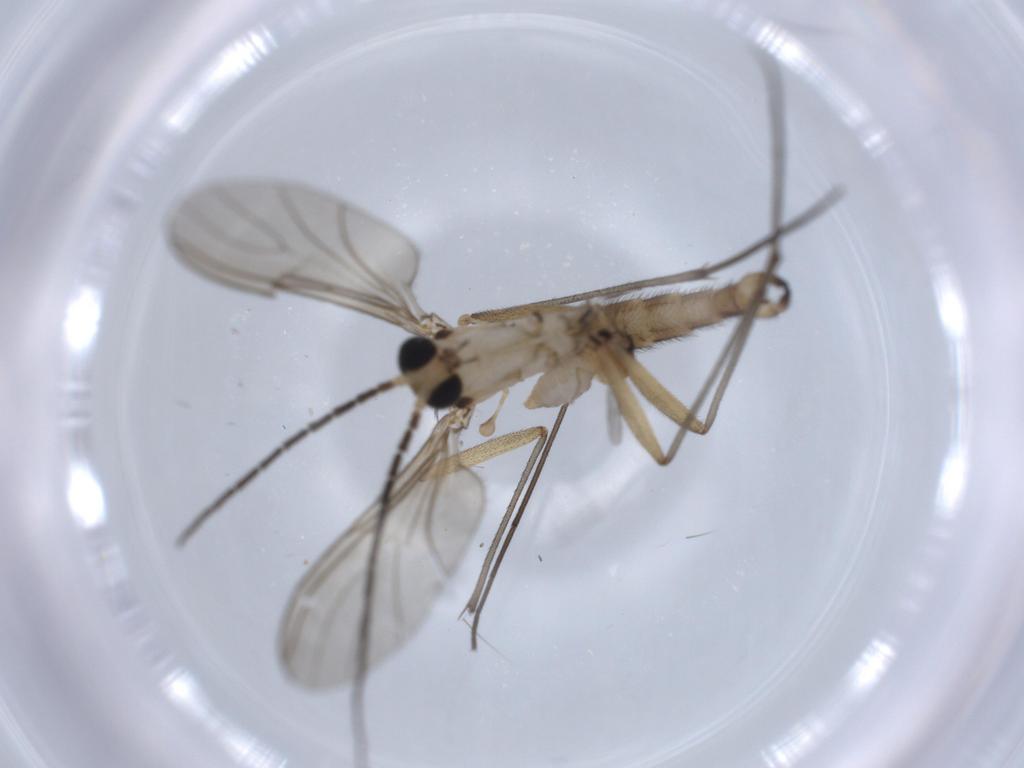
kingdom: Animalia
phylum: Arthropoda
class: Insecta
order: Diptera
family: Ceratopogonidae
